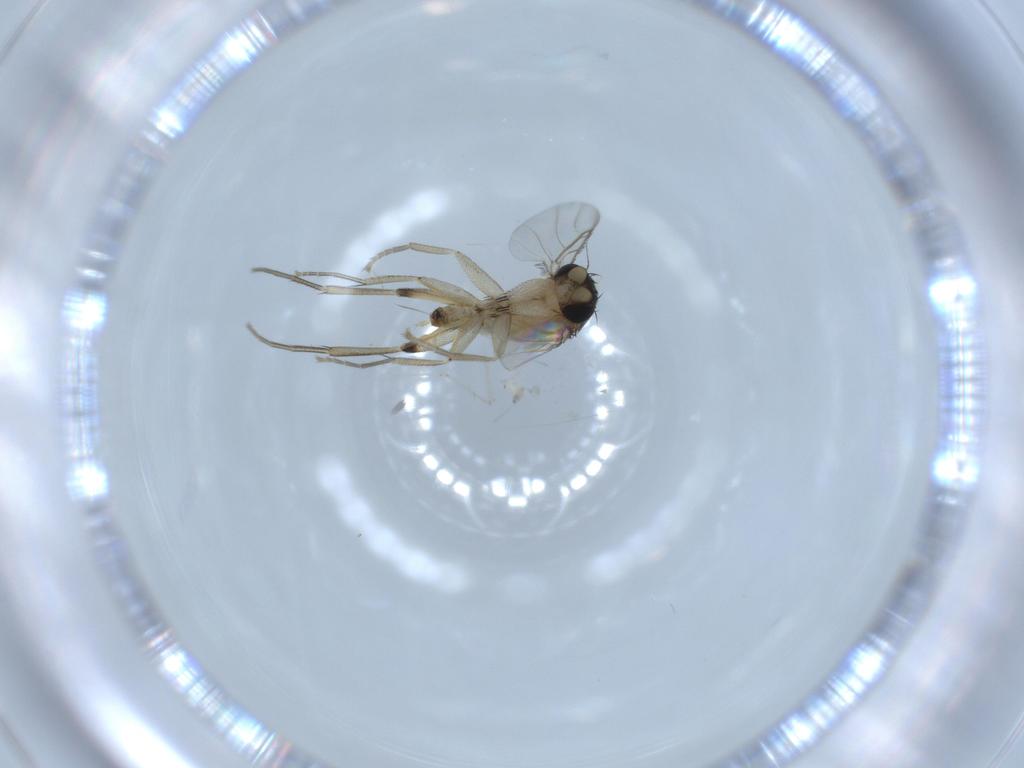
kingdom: Animalia
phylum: Arthropoda
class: Insecta
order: Diptera
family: Phoridae
